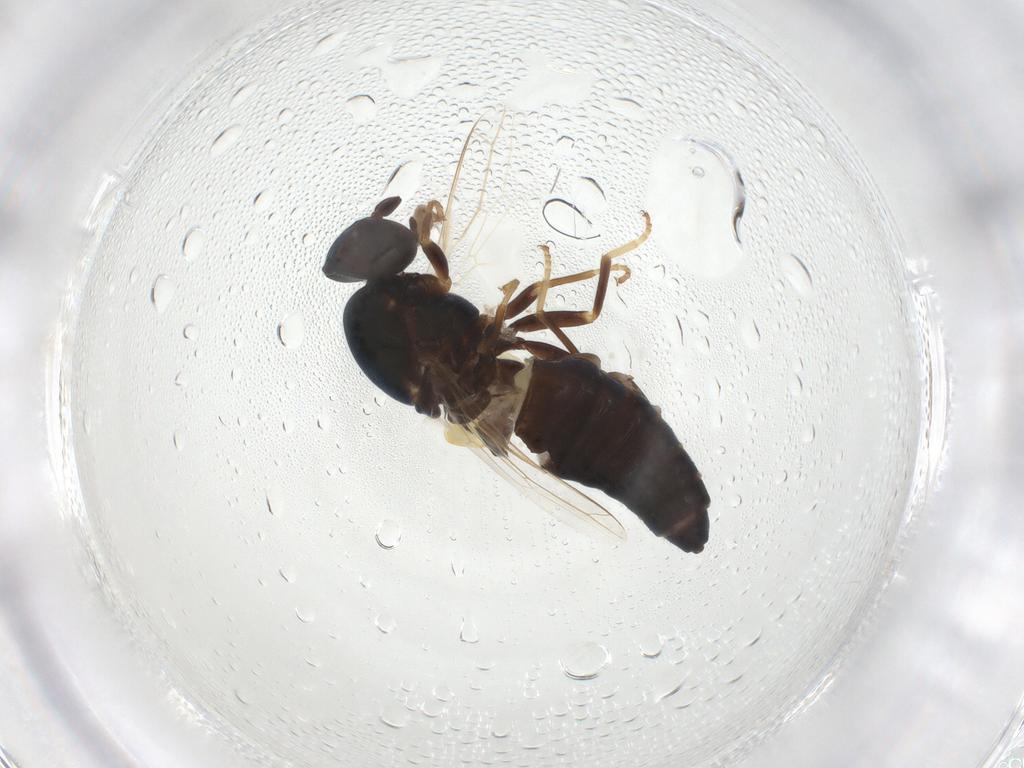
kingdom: Animalia
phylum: Arthropoda
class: Insecta
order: Diptera
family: Scenopinidae
